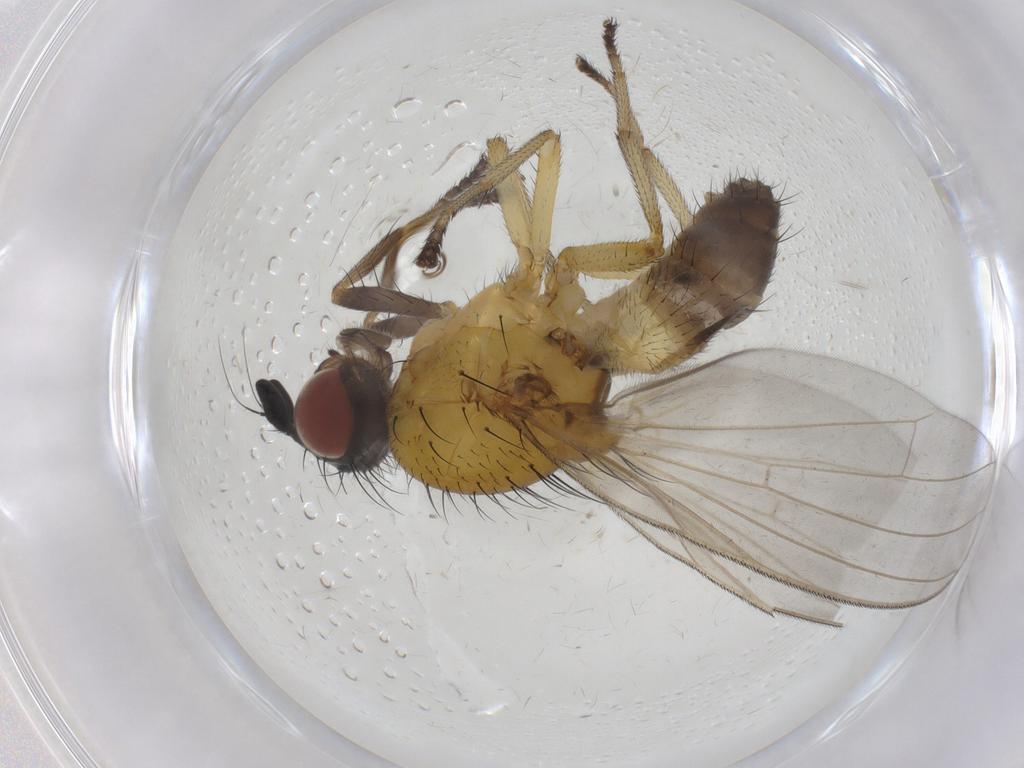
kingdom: Animalia
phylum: Arthropoda
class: Insecta
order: Diptera
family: Lauxaniidae
